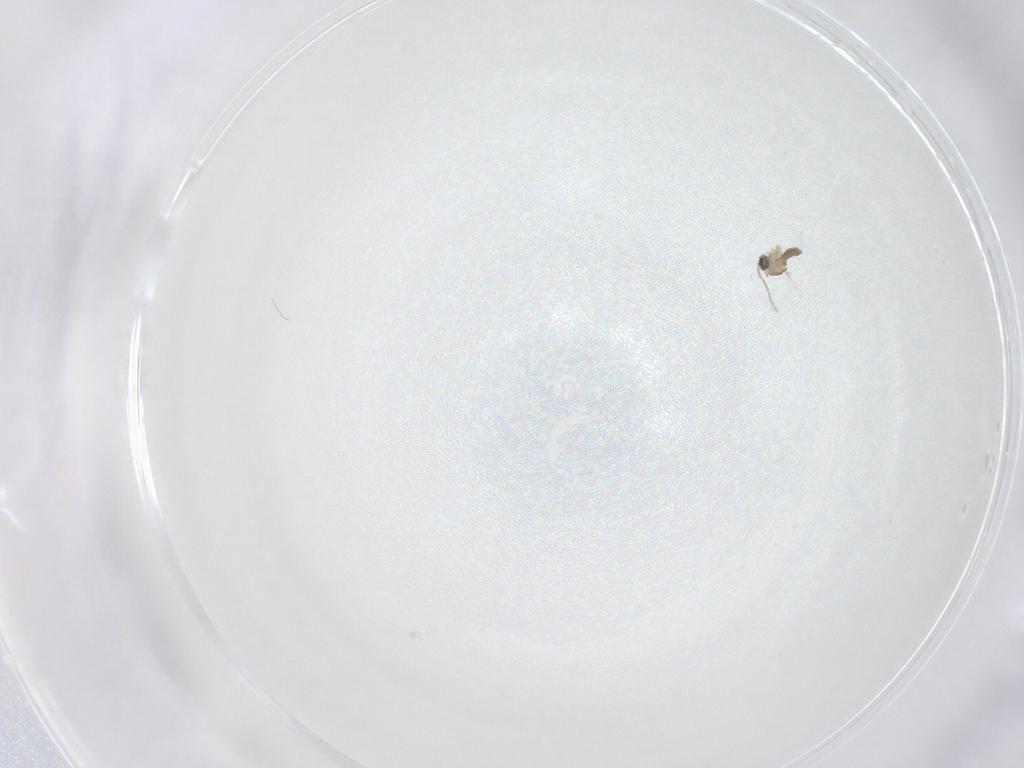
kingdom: Animalia
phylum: Arthropoda
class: Insecta
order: Diptera
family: Cecidomyiidae
